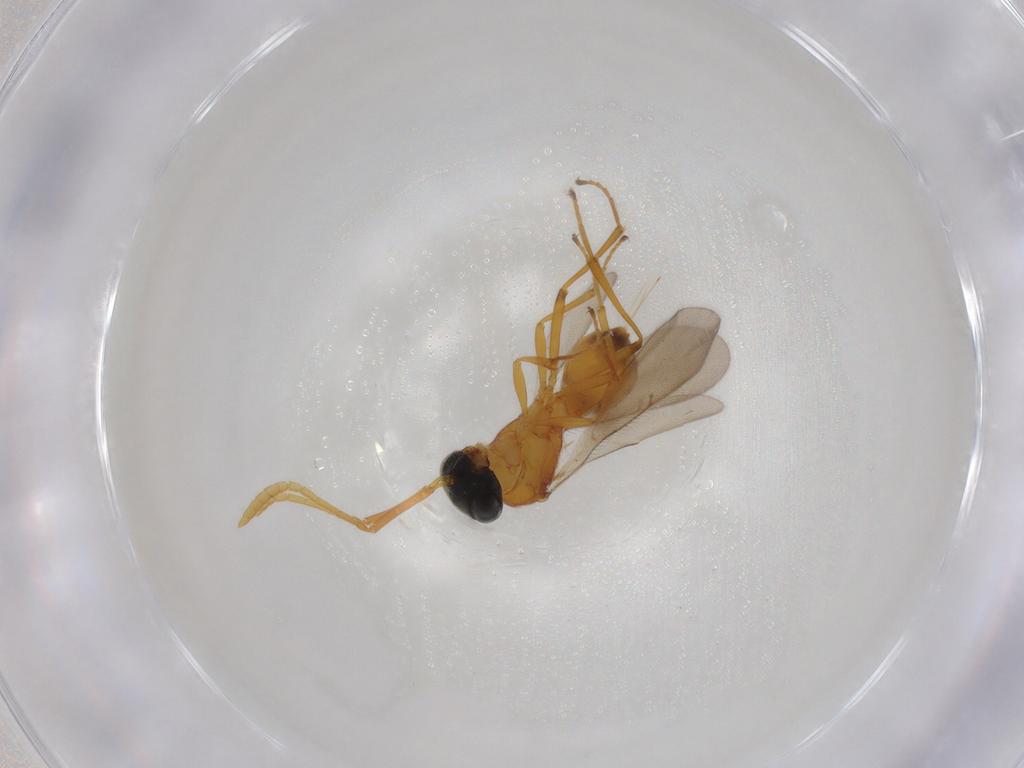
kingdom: Animalia
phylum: Arthropoda
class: Insecta
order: Hymenoptera
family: Scelionidae
